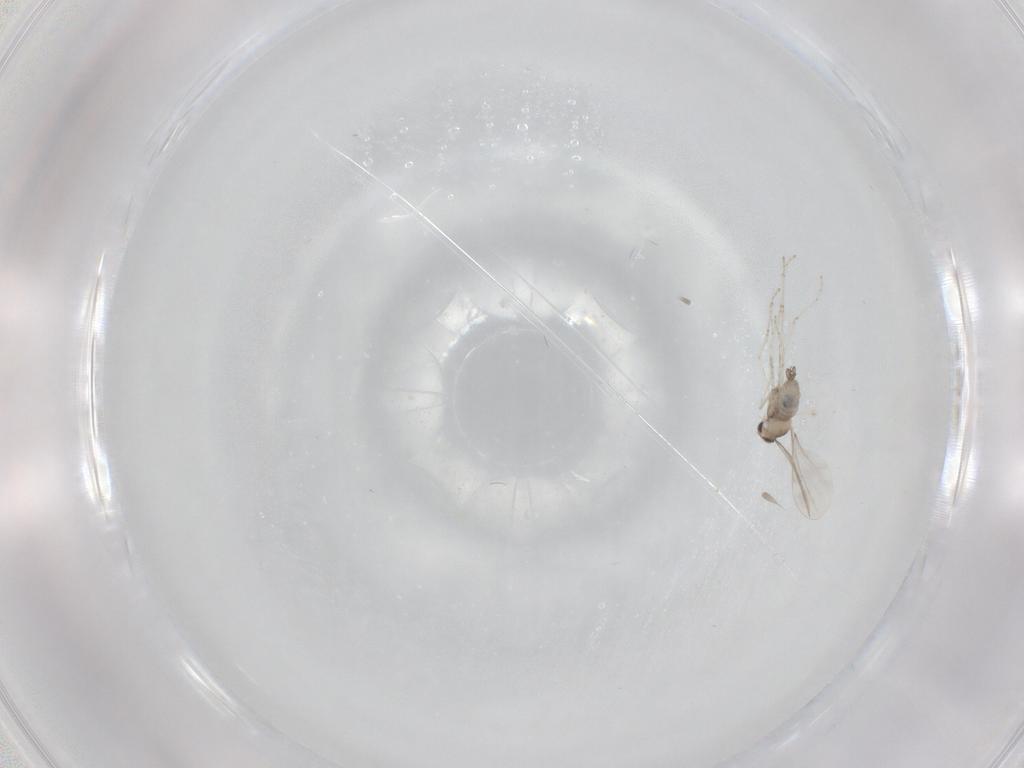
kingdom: Animalia
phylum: Arthropoda
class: Insecta
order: Diptera
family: Cecidomyiidae
